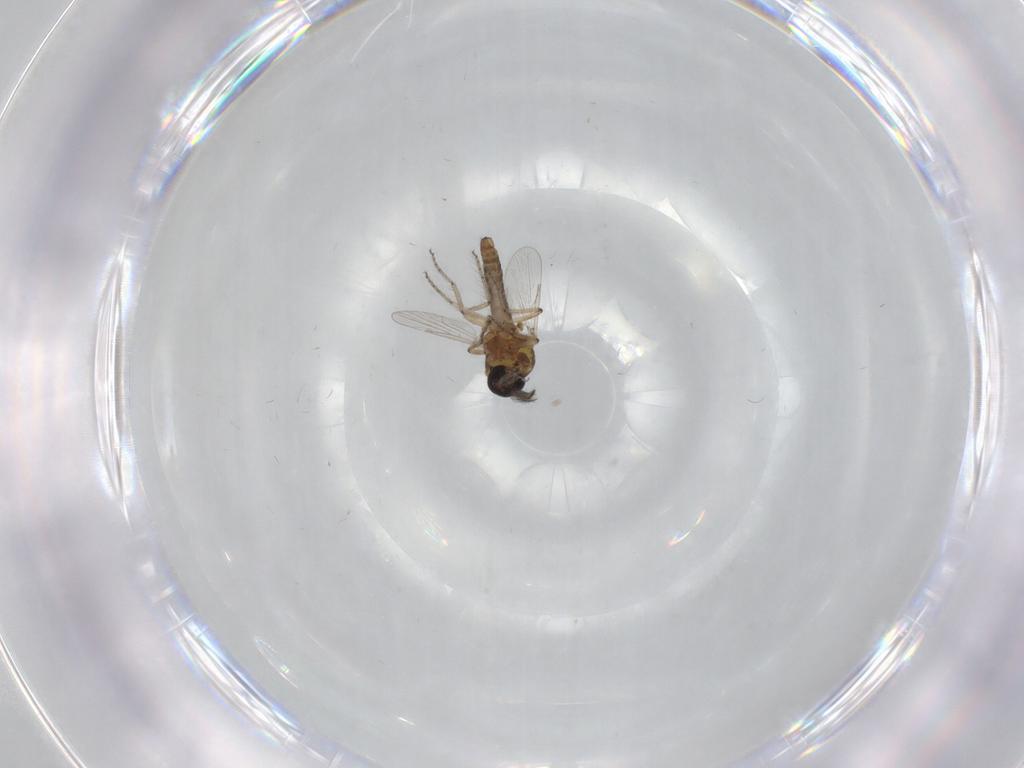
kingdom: Animalia
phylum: Arthropoda
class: Insecta
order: Diptera
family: Ceratopogonidae
